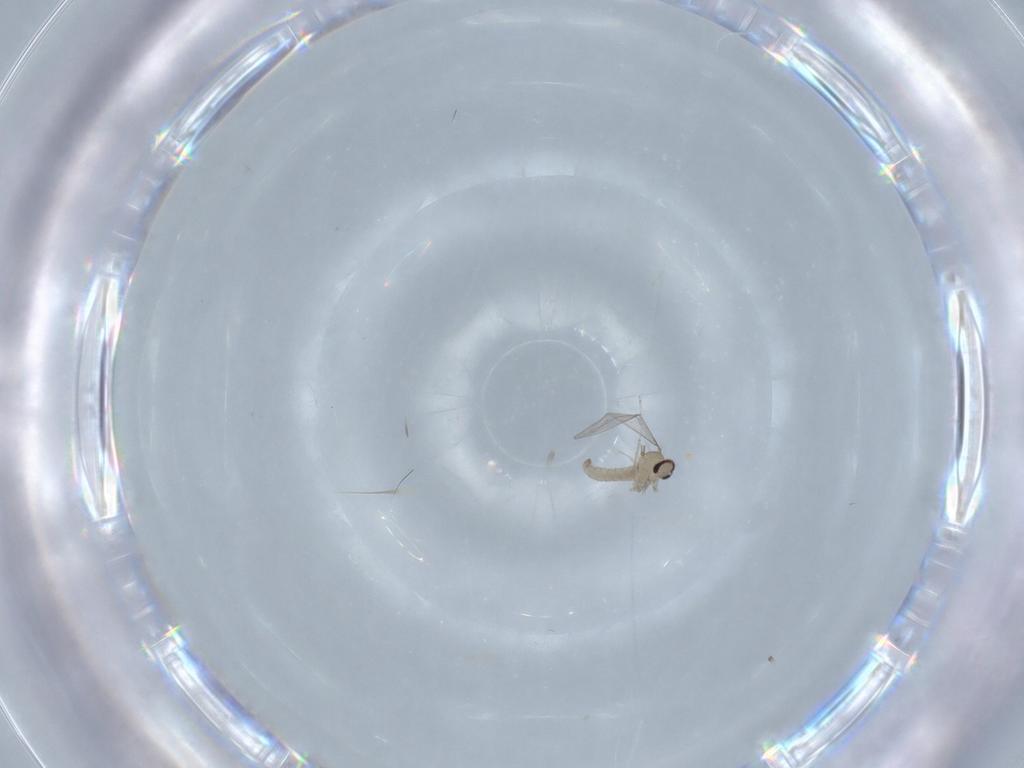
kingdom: Animalia
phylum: Arthropoda
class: Insecta
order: Diptera
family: Cecidomyiidae
